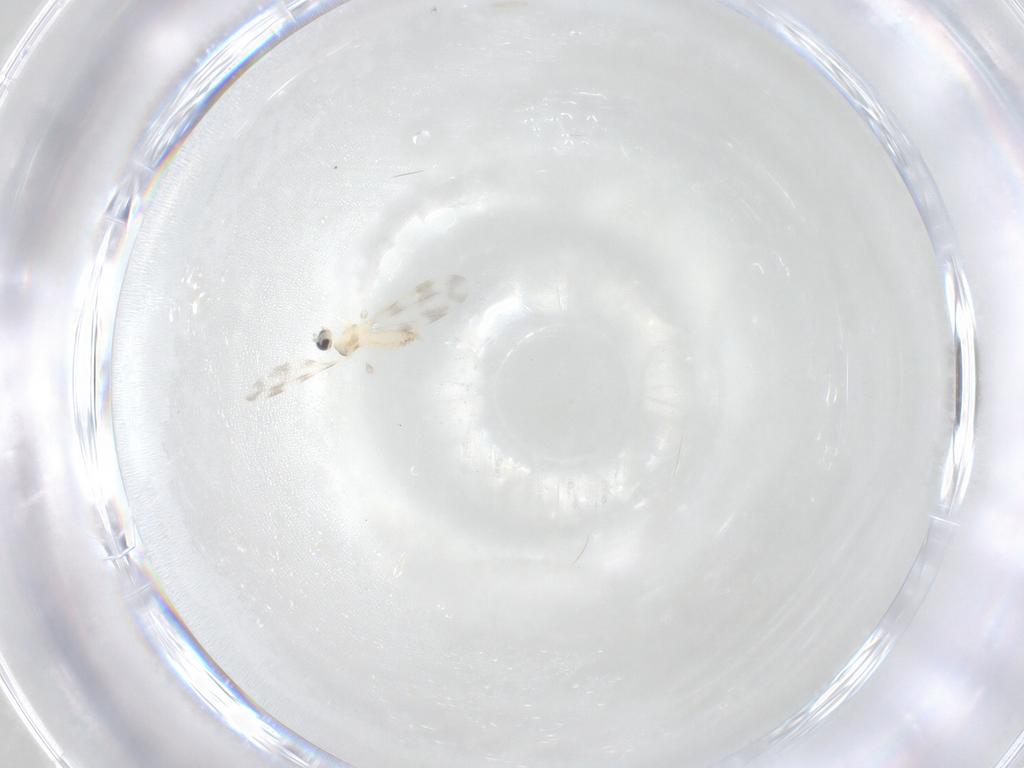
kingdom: Animalia
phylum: Arthropoda
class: Insecta
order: Diptera
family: Cecidomyiidae
